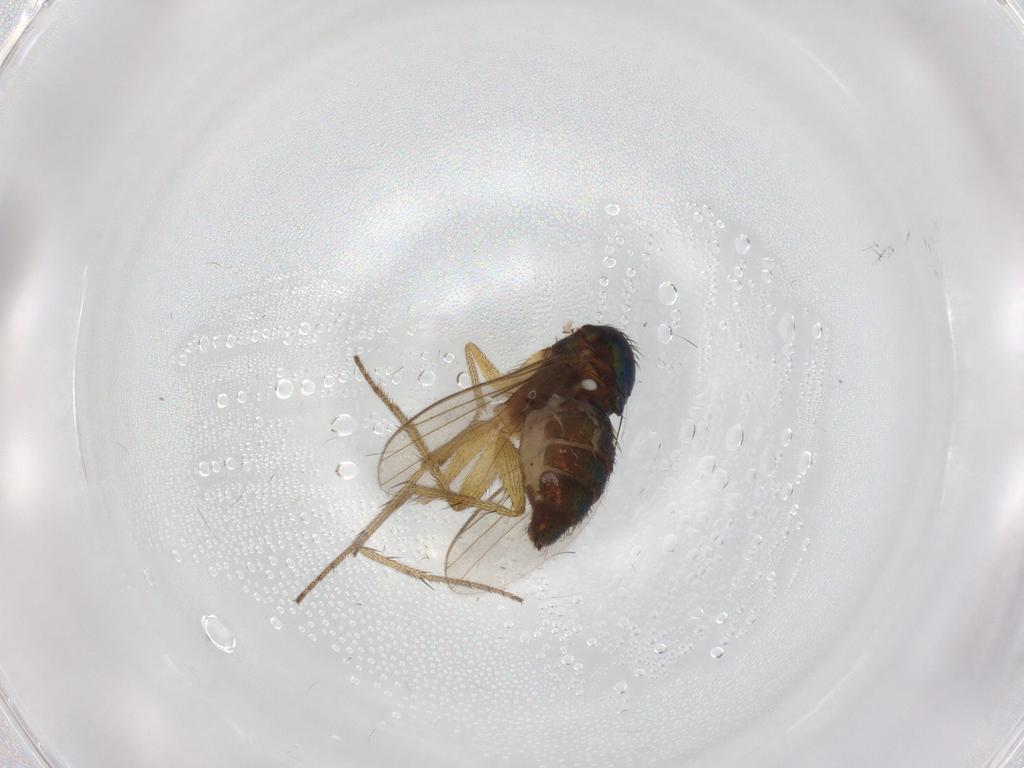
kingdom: Animalia
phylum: Arthropoda
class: Insecta
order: Diptera
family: Dolichopodidae
